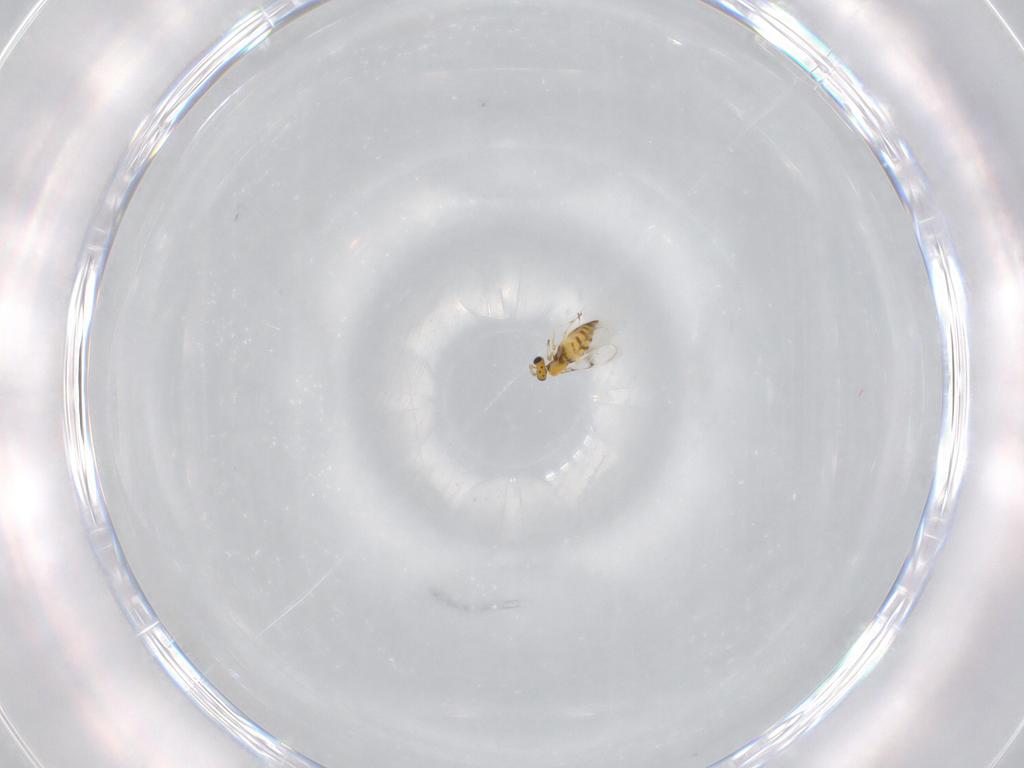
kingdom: Animalia
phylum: Arthropoda
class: Insecta
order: Hymenoptera
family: Trichogrammatidae
